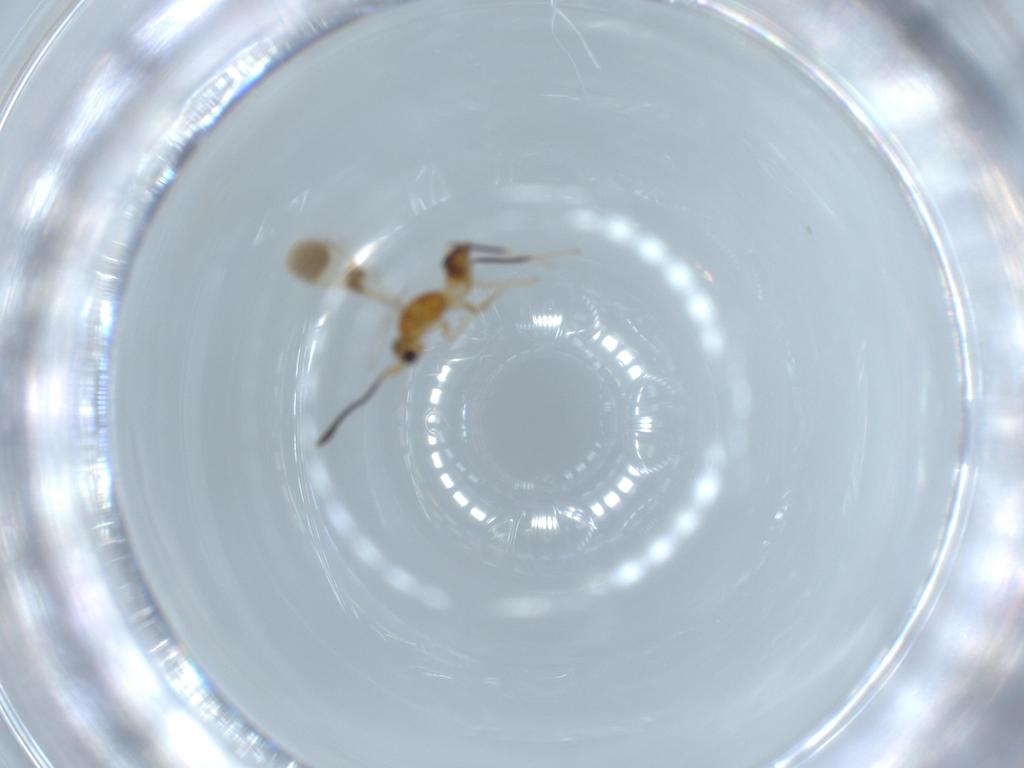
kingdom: Animalia
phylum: Arthropoda
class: Insecta
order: Hymenoptera
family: Mymaridae
